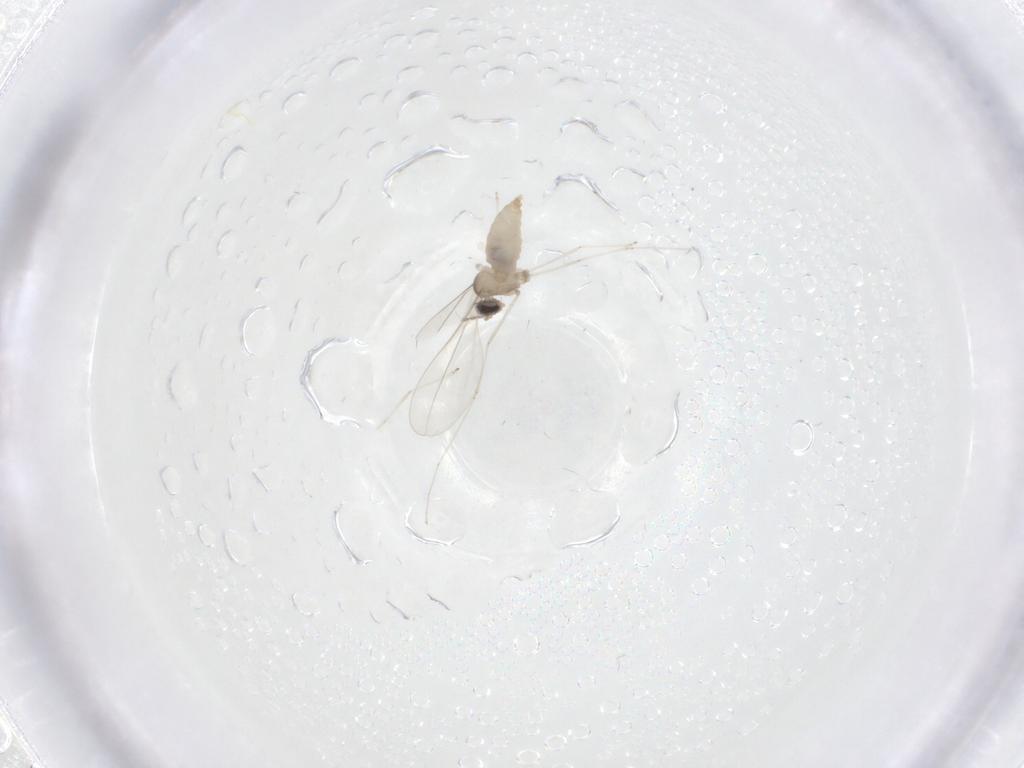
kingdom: Animalia
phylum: Arthropoda
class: Insecta
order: Diptera
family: Cecidomyiidae
